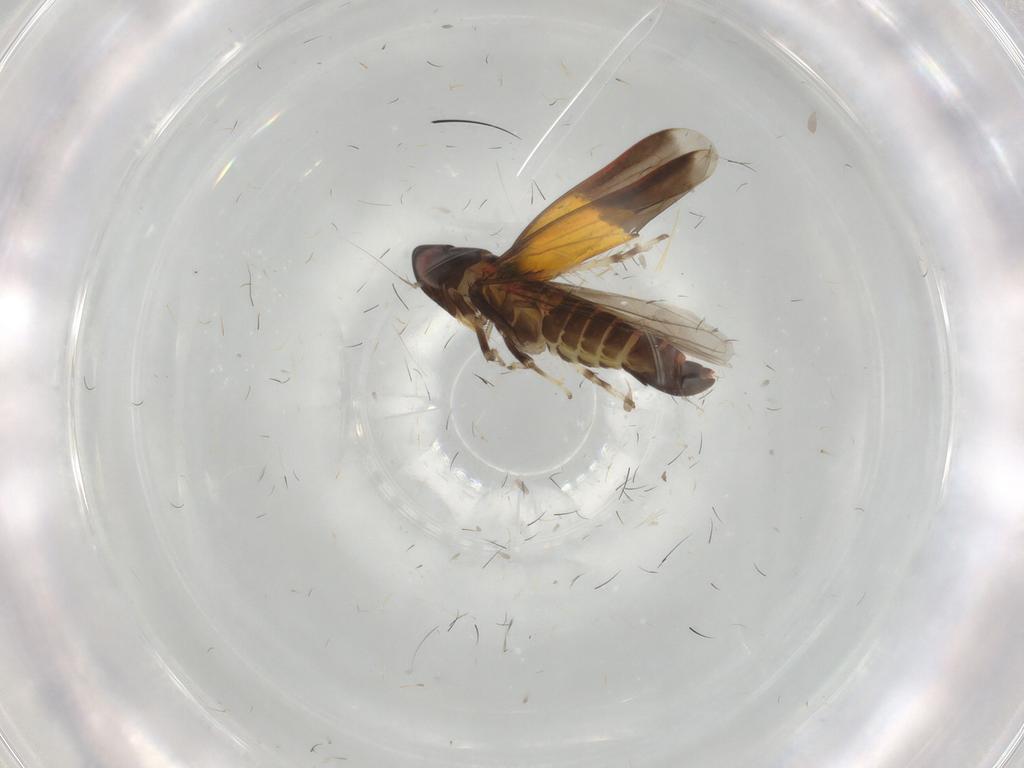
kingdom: Animalia
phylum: Arthropoda
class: Insecta
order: Hemiptera
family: Cicadellidae
